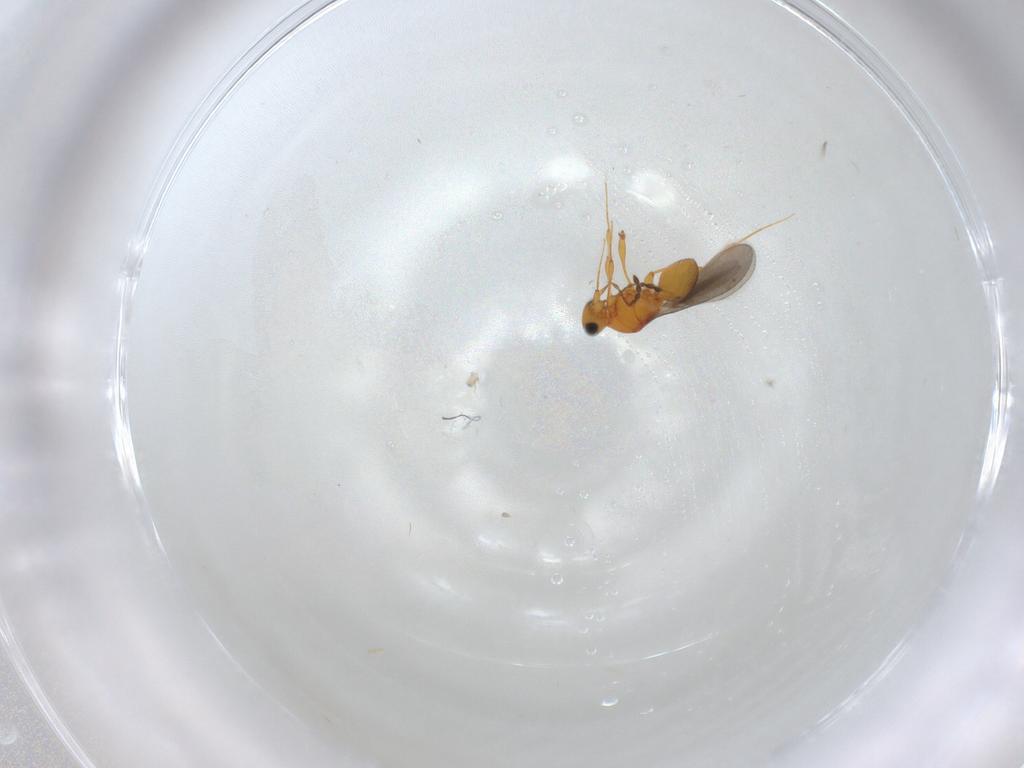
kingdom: Animalia
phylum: Arthropoda
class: Insecta
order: Hymenoptera
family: Platygastridae
